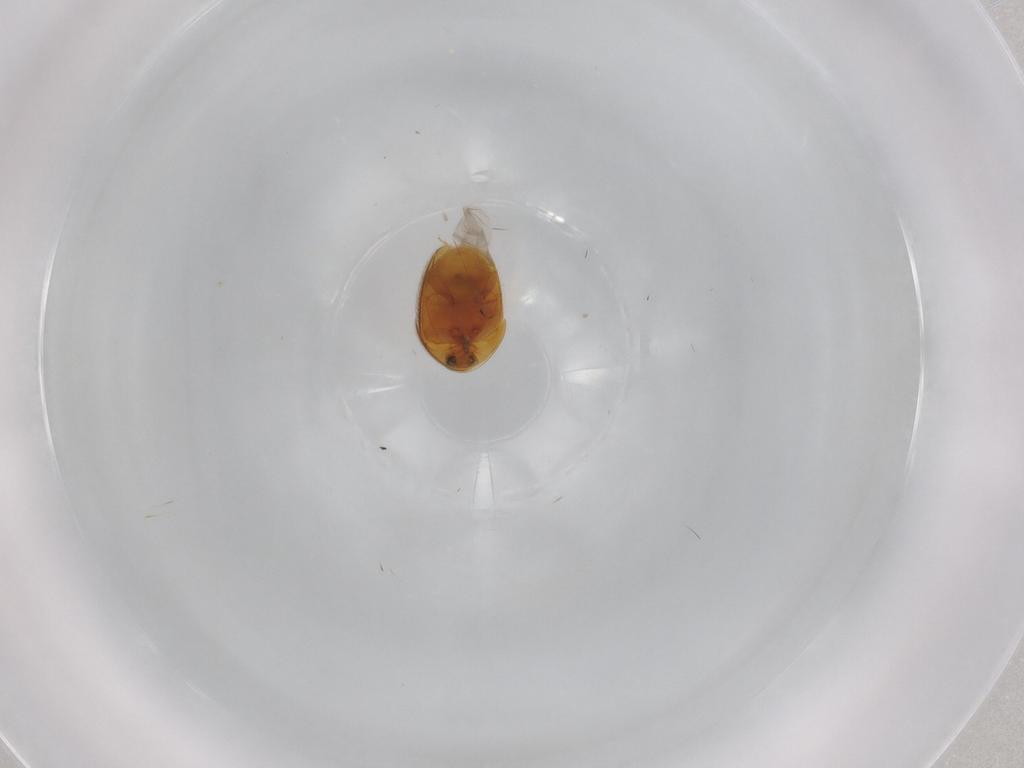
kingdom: Animalia
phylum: Arthropoda
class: Insecta
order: Coleoptera
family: Corylophidae
